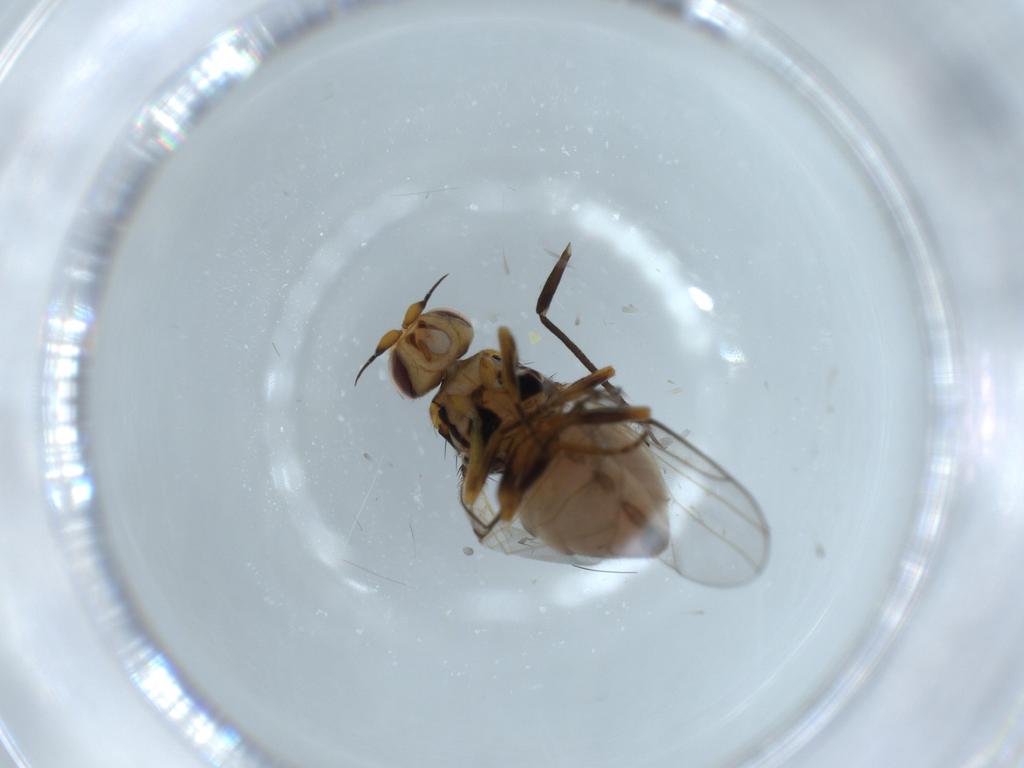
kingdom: Animalia
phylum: Arthropoda
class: Insecta
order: Diptera
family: Chloropidae
